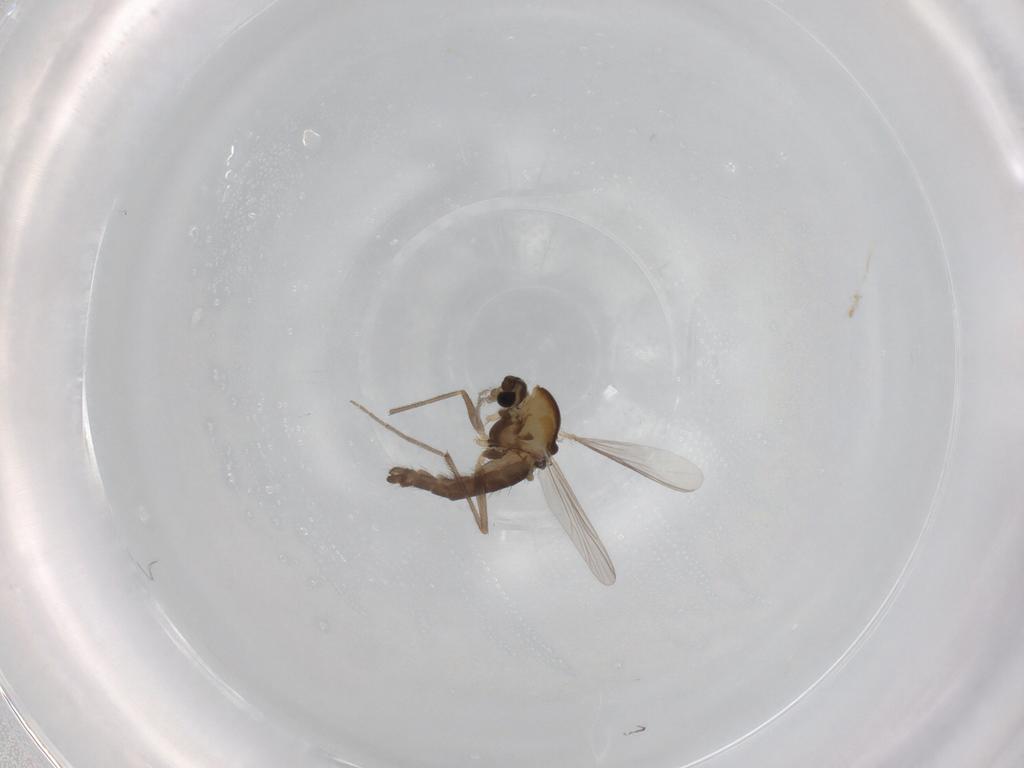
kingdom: Animalia
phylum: Arthropoda
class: Insecta
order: Diptera
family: Chironomidae
